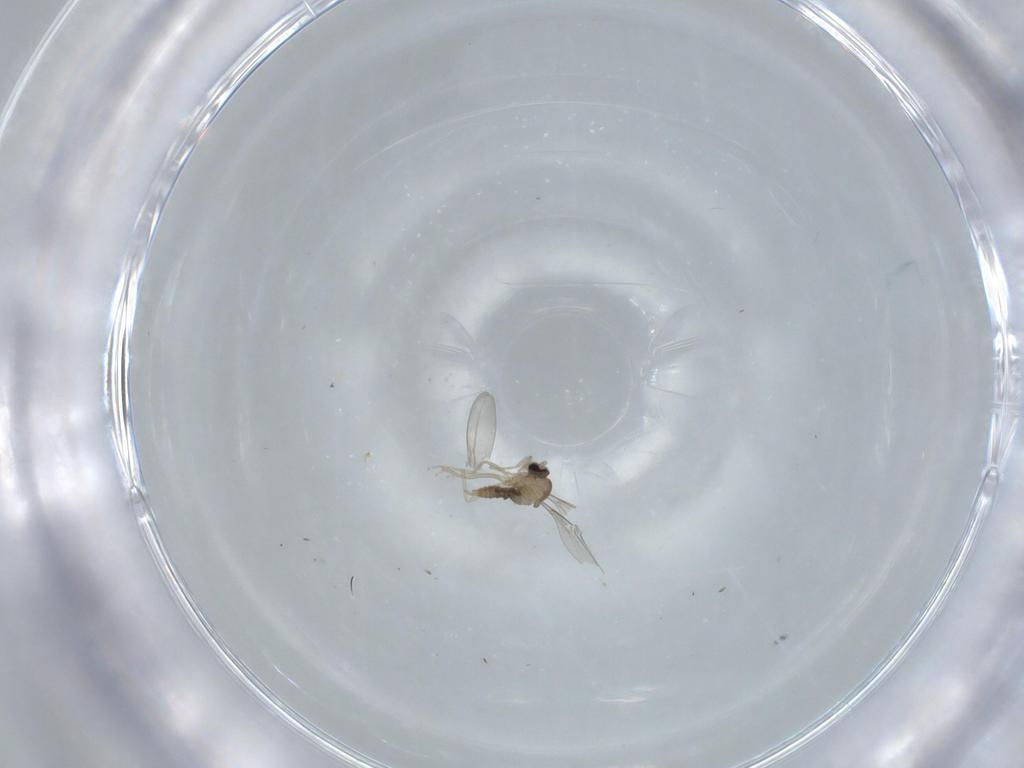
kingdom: Animalia
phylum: Arthropoda
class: Insecta
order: Diptera
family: Cecidomyiidae
